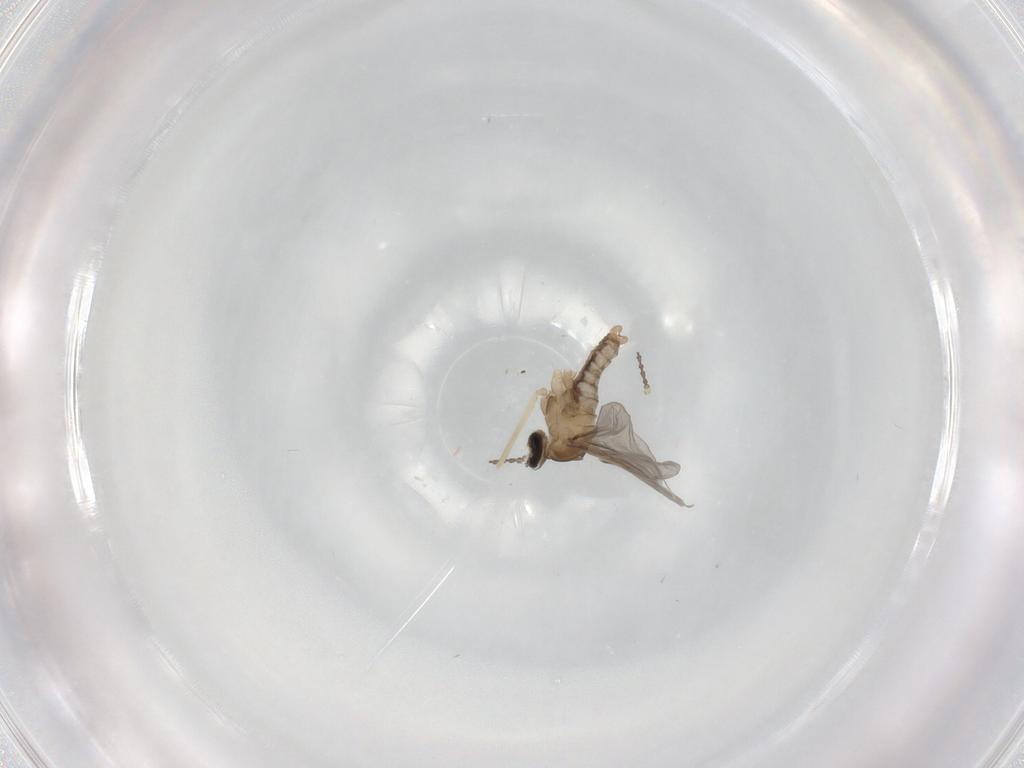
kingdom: Animalia
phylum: Arthropoda
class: Insecta
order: Diptera
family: Cecidomyiidae
